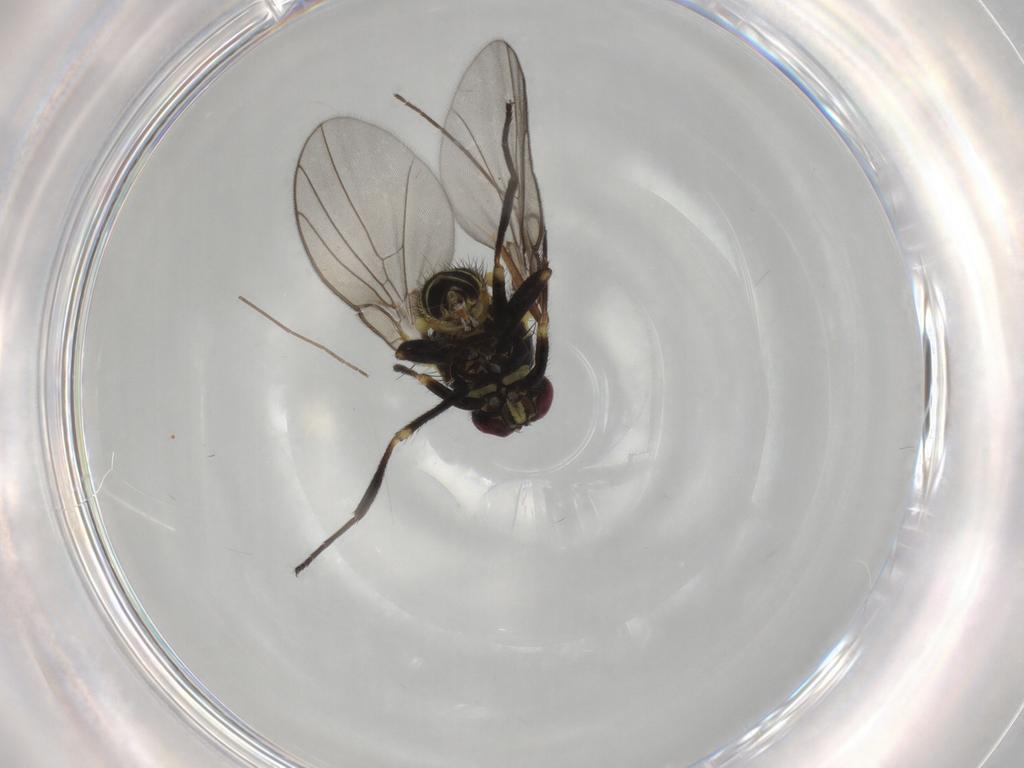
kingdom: Animalia
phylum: Arthropoda
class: Insecta
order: Diptera
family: Agromyzidae
